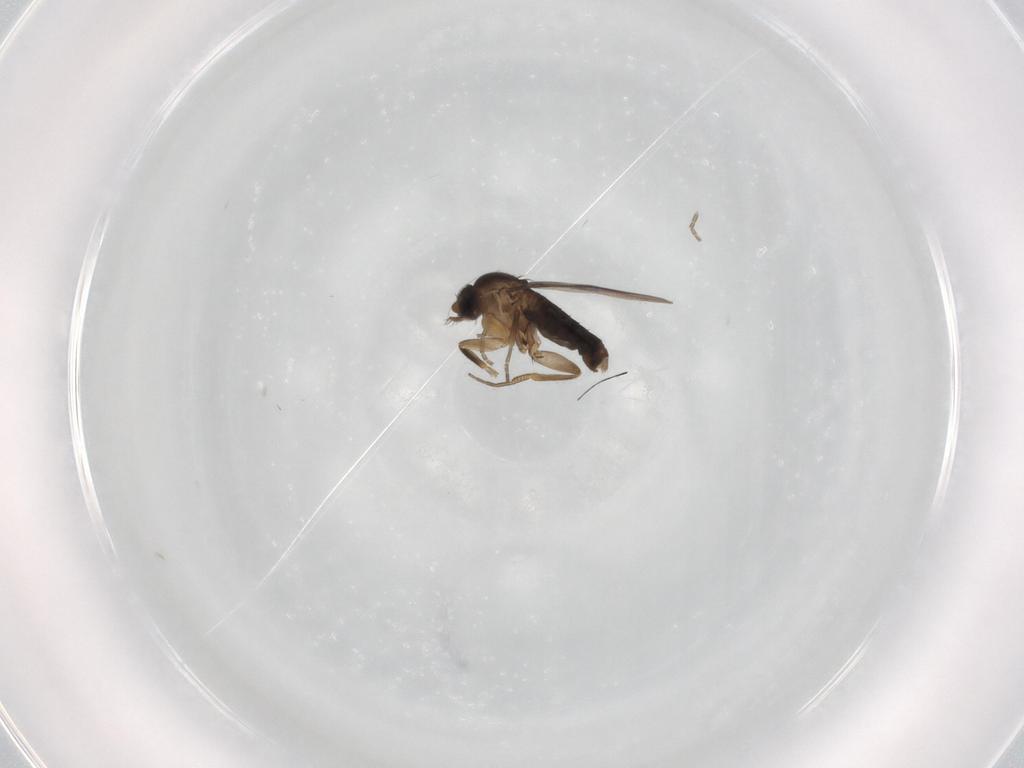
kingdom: Animalia
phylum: Arthropoda
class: Insecta
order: Diptera
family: Phoridae
